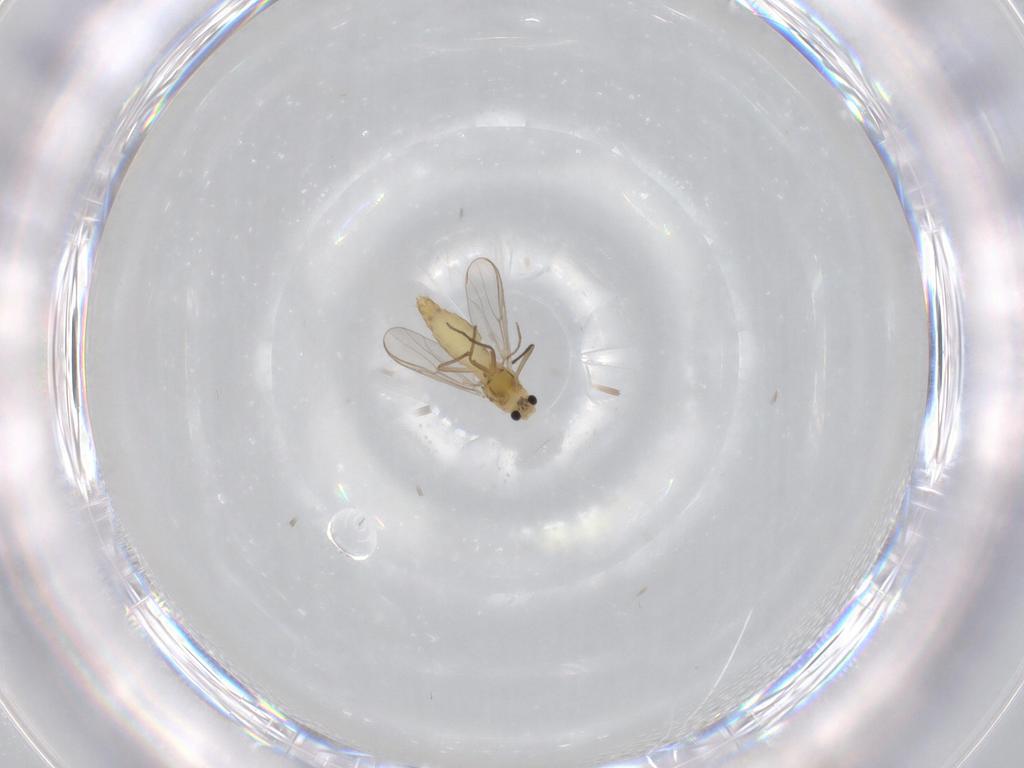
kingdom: Animalia
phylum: Arthropoda
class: Insecta
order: Diptera
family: Chironomidae
